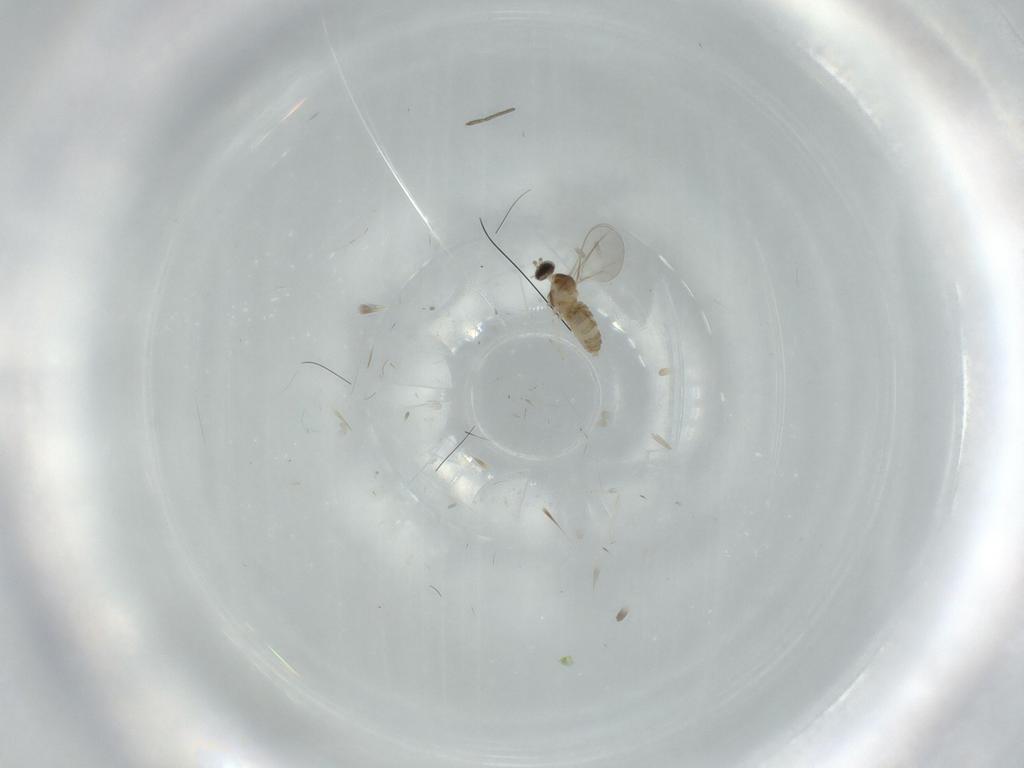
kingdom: Animalia
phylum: Arthropoda
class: Insecta
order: Diptera
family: Cecidomyiidae
